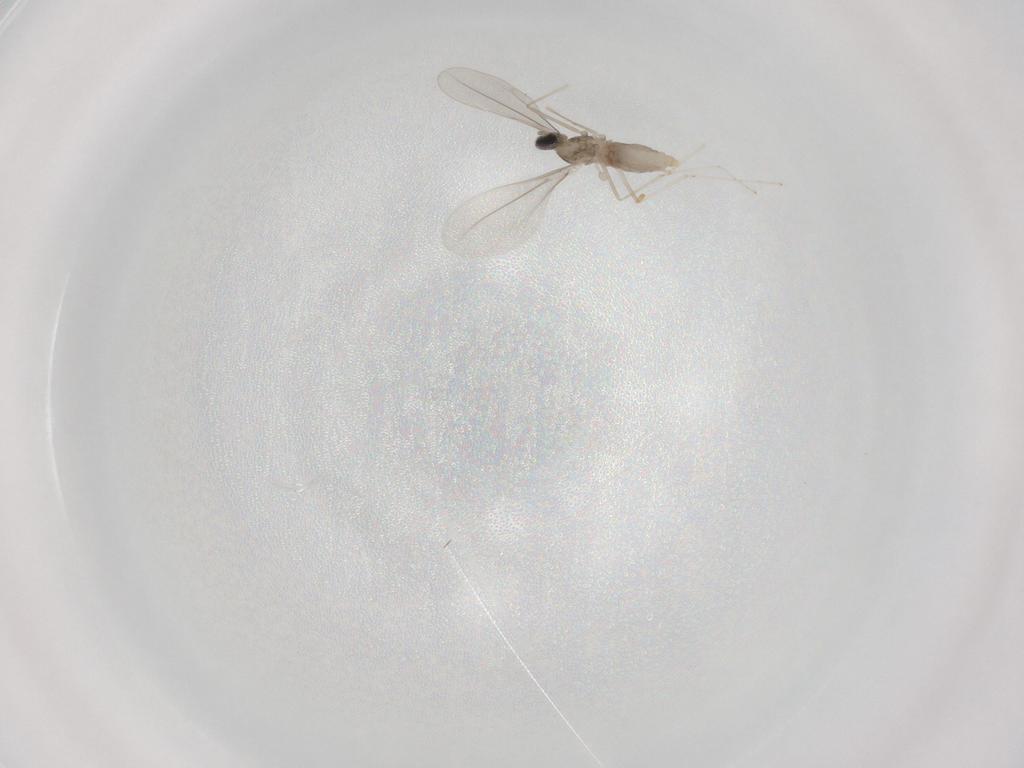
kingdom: Animalia
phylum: Arthropoda
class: Insecta
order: Diptera
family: Cecidomyiidae
